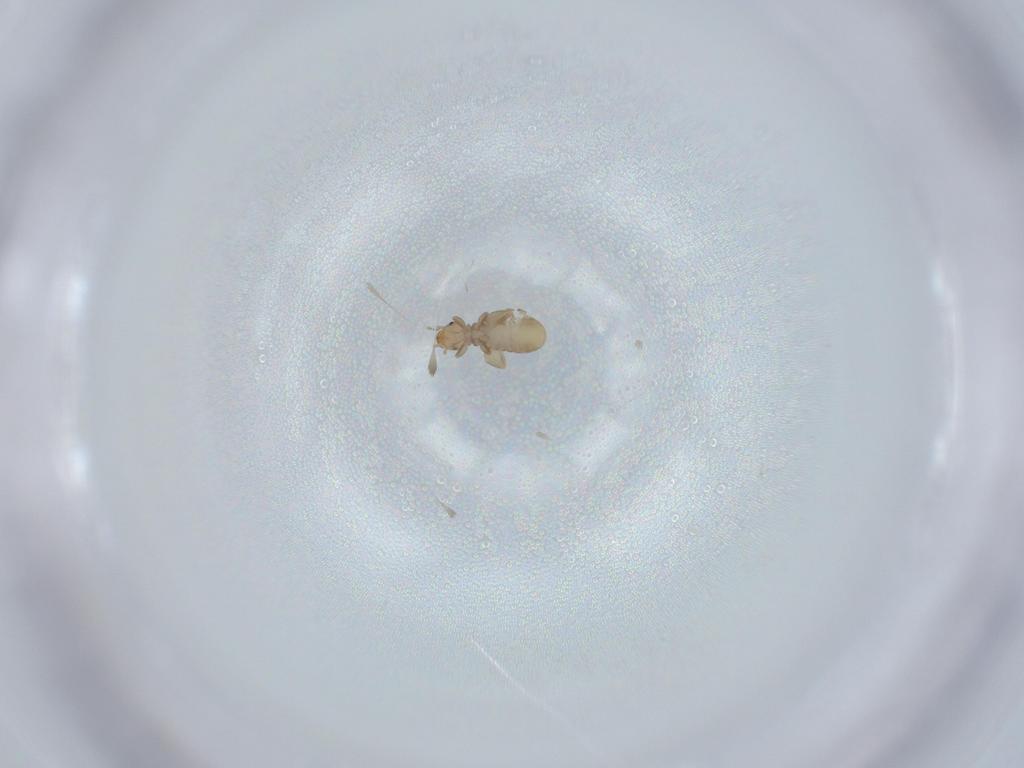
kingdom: Animalia
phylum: Arthropoda
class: Insecta
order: Psocodea
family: Liposcelididae
